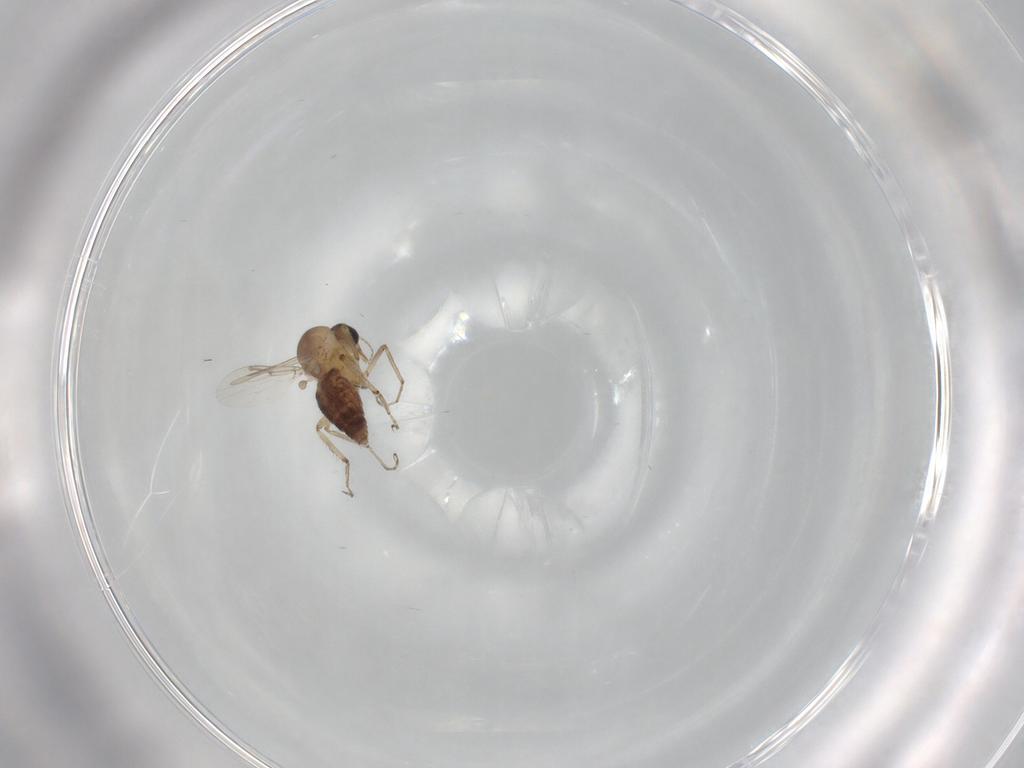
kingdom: Animalia
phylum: Arthropoda
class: Insecta
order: Diptera
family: Ceratopogonidae
